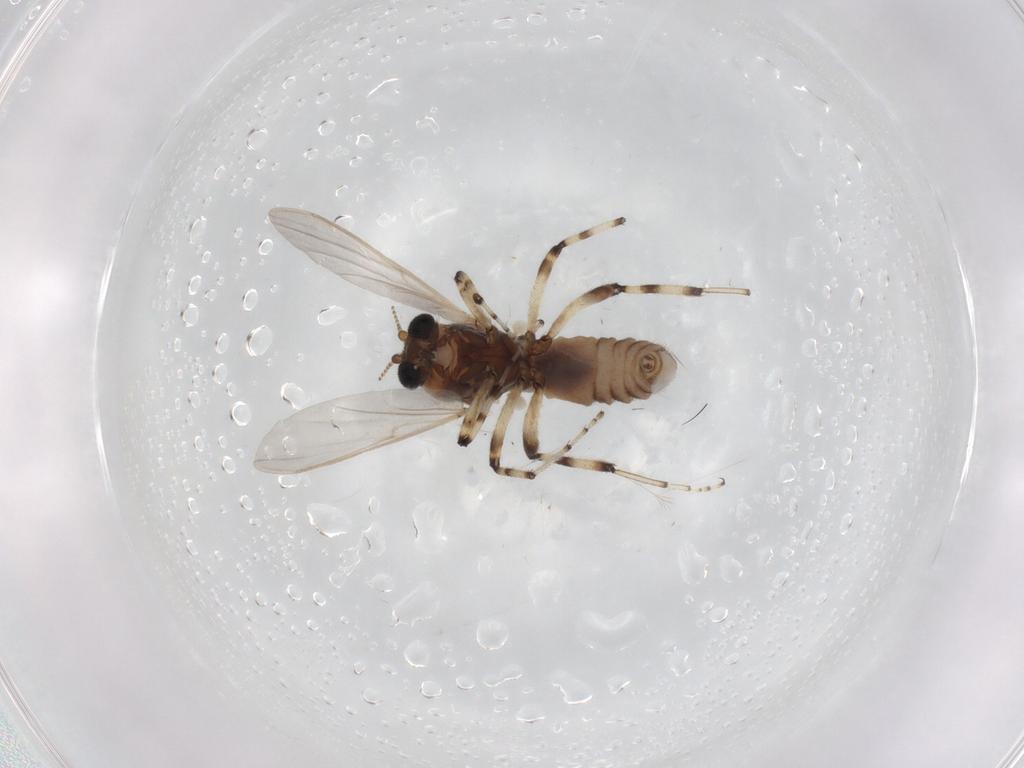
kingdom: Animalia
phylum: Arthropoda
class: Insecta
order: Diptera
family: Ceratopogonidae
